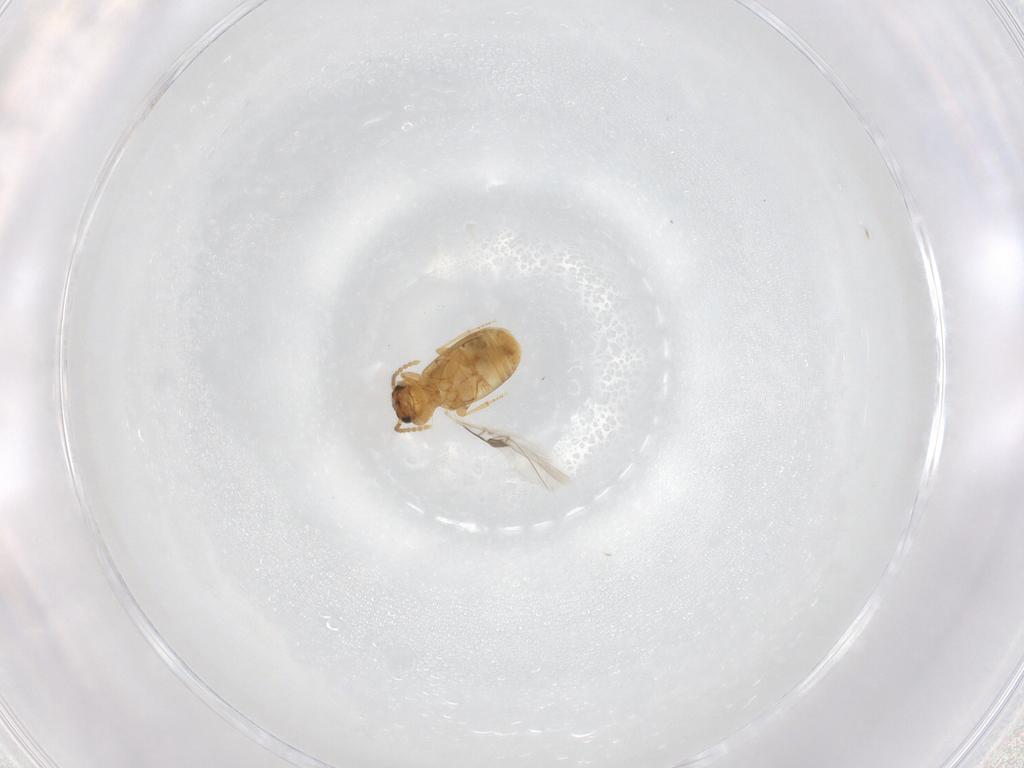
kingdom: Animalia
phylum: Arthropoda
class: Insecta
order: Coleoptera
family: Carabidae
